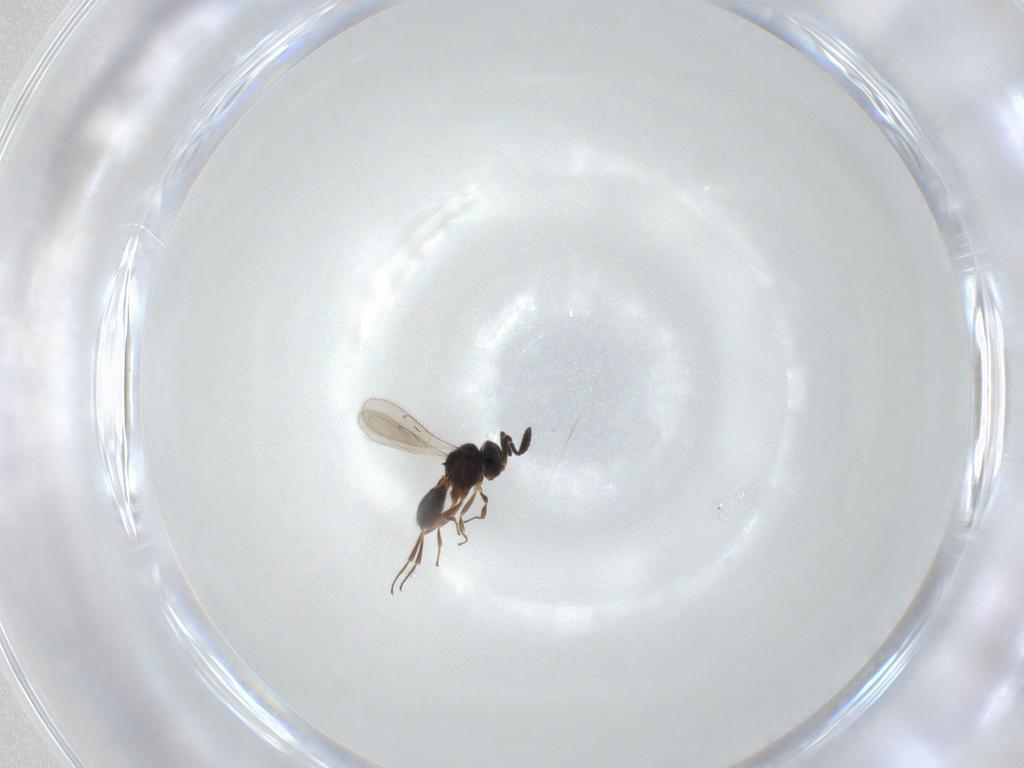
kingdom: Animalia
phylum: Arthropoda
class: Insecta
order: Hymenoptera
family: Scelionidae
